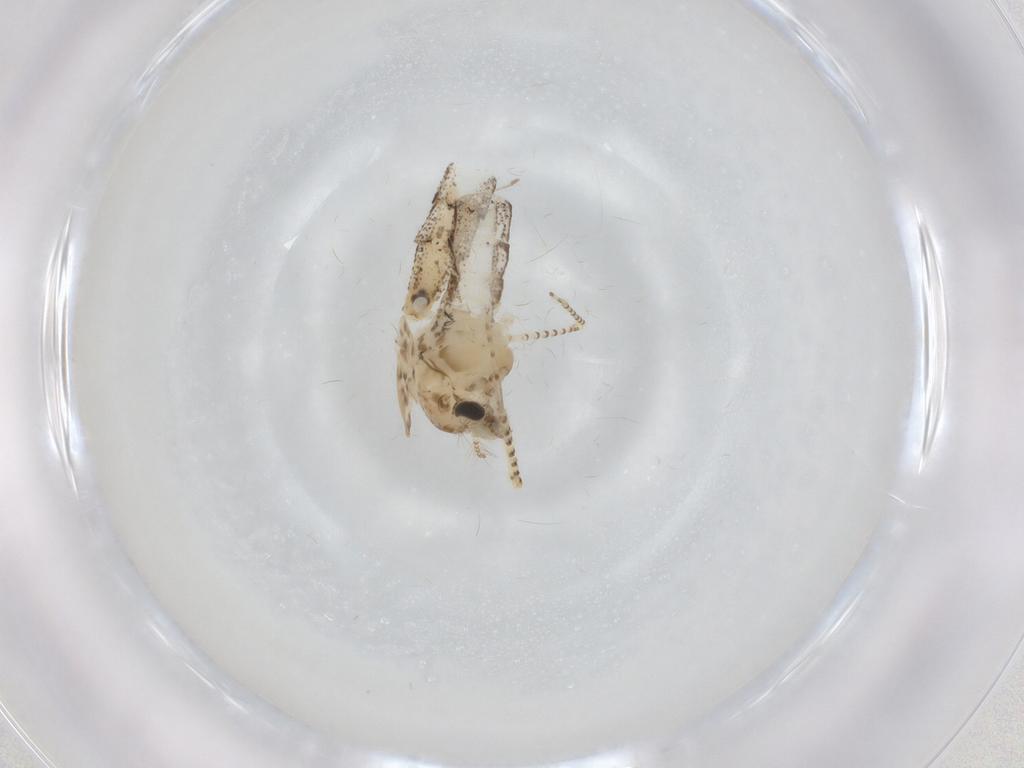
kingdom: Animalia
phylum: Arthropoda
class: Insecta
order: Diptera
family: Chaoboridae
